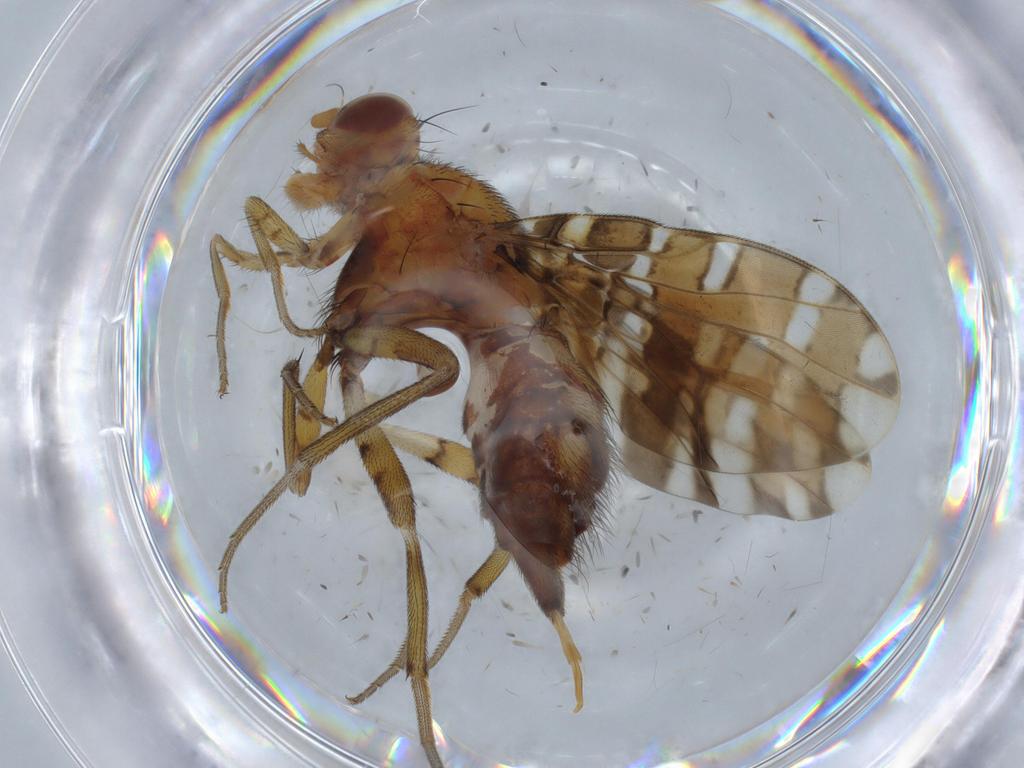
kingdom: Animalia
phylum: Arthropoda
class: Insecta
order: Diptera
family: Ulidiidae
